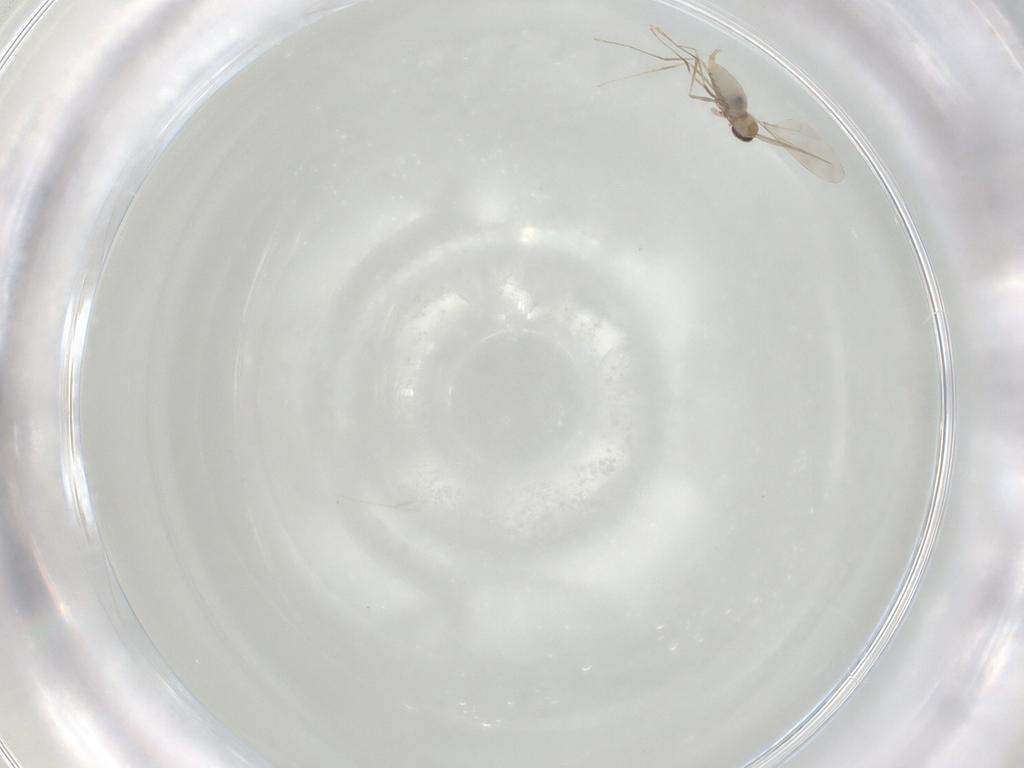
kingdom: Animalia
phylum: Arthropoda
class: Insecta
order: Diptera
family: Cecidomyiidae
